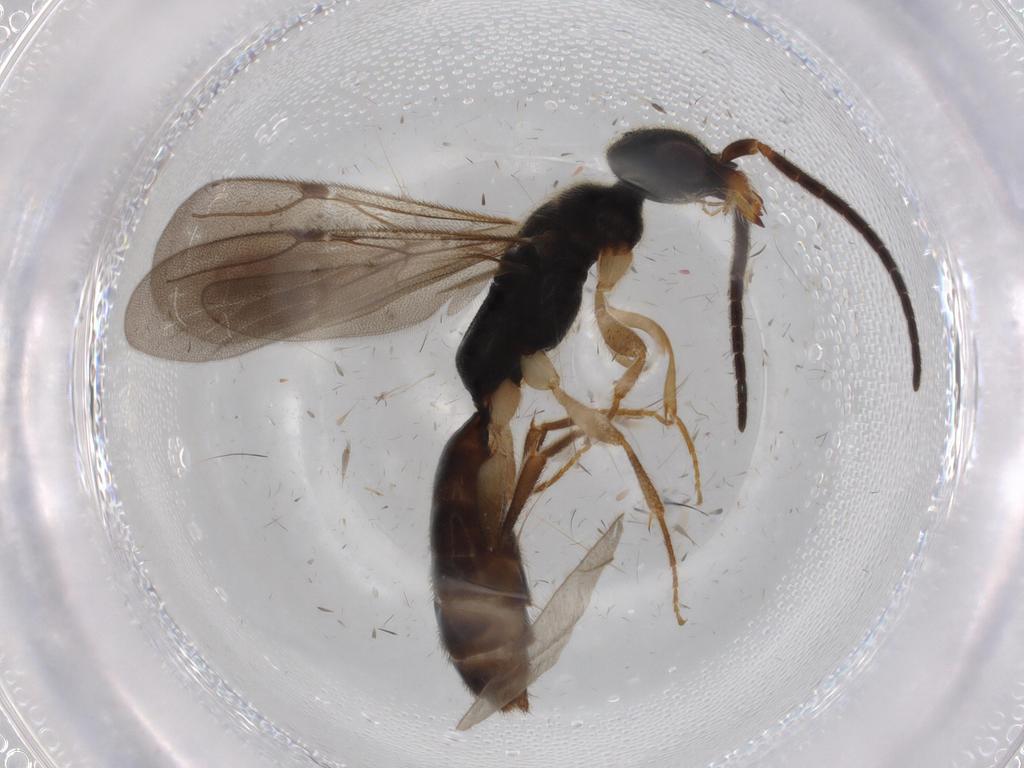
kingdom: Animalia
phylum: Arthropoda
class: Insecta
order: Hymenoptera
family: Bethylidae
